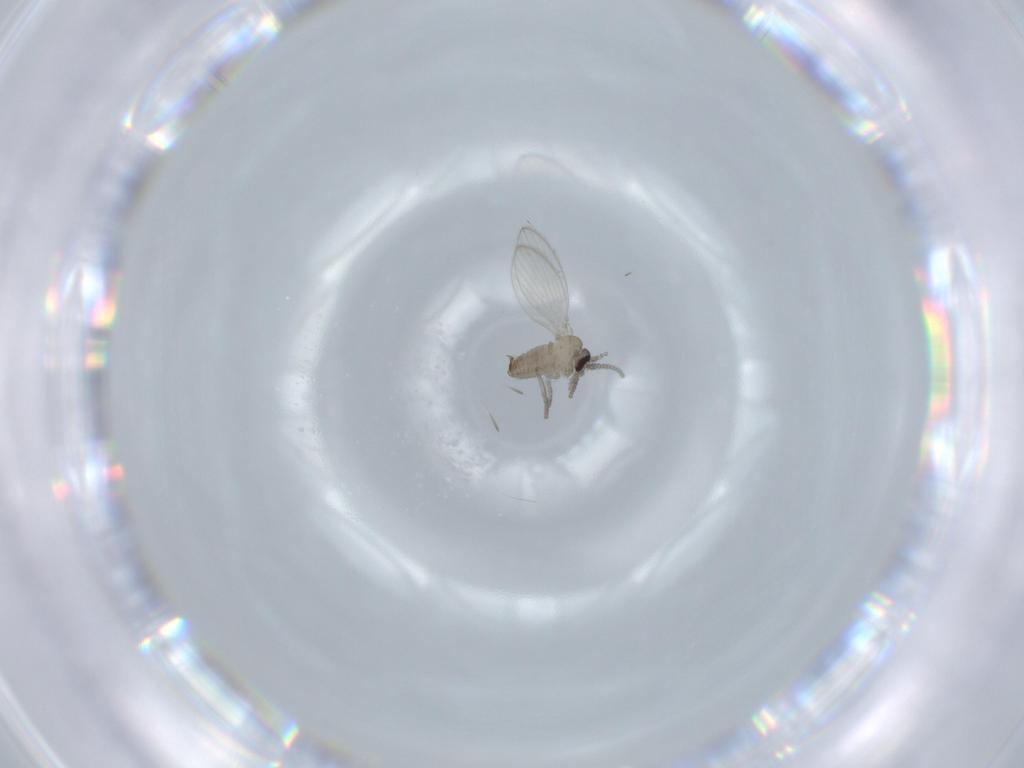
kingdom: Animalia
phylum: Arthropoda
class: Insecta
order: Diptera
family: Psychodidae
